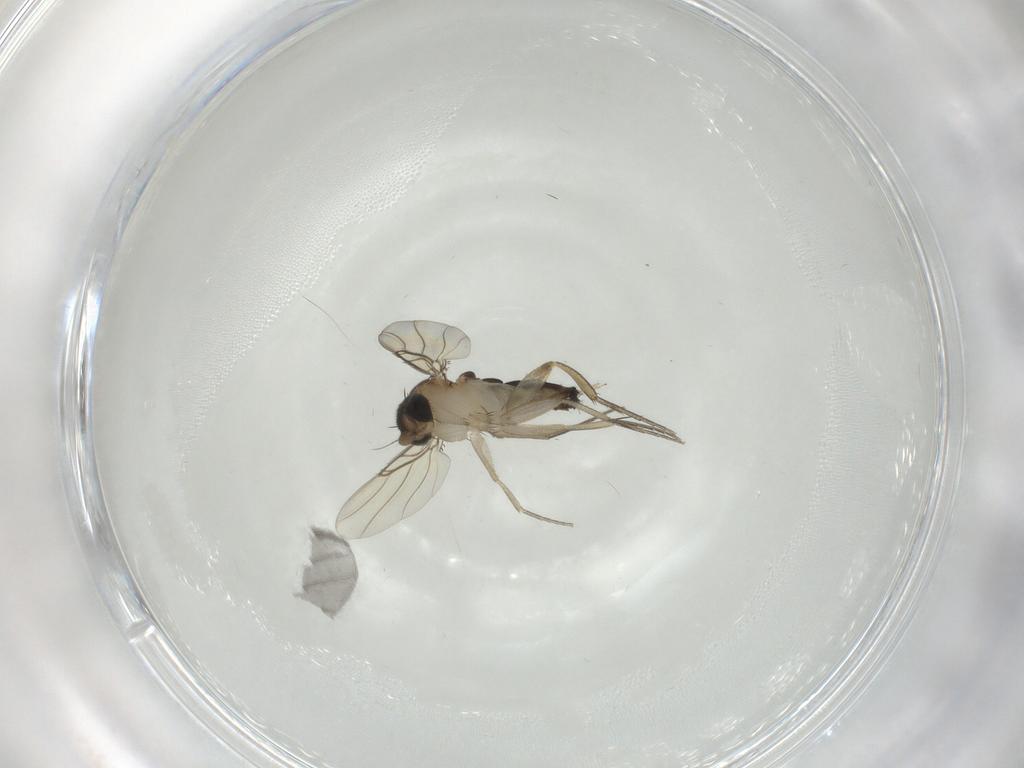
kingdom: Animalia
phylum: Arthropoda
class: Insecta
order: Diptera
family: Phoridae
